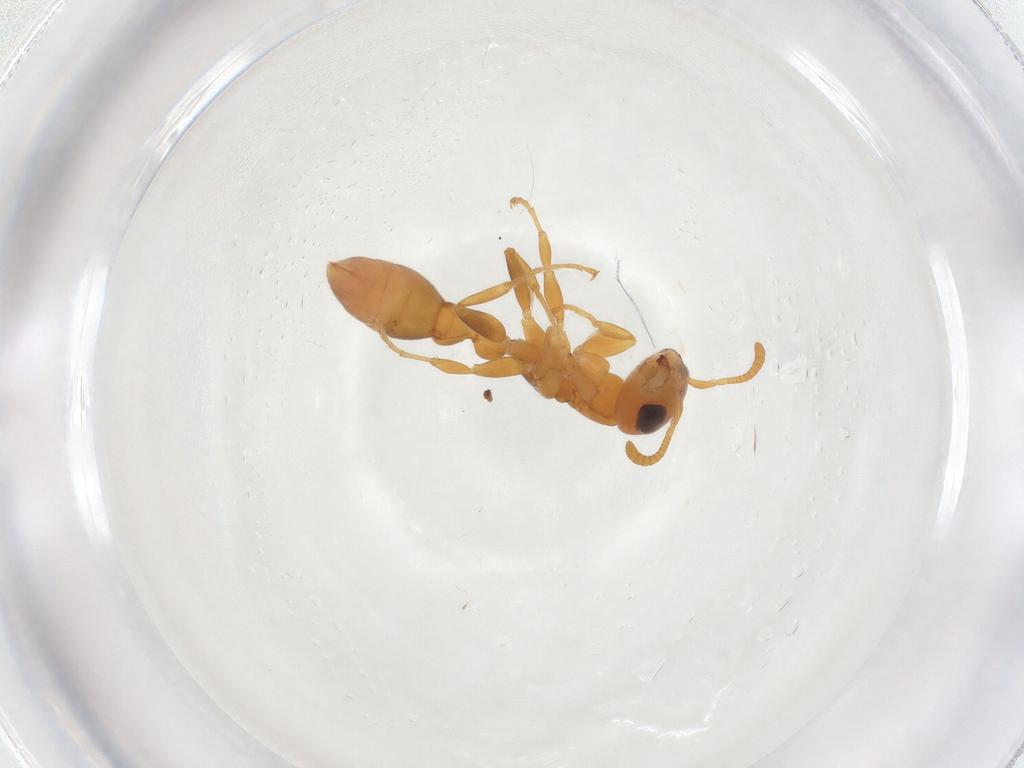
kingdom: Animalia
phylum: Arthropoda
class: Insecta
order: Hymenoptera
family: Formicidae
